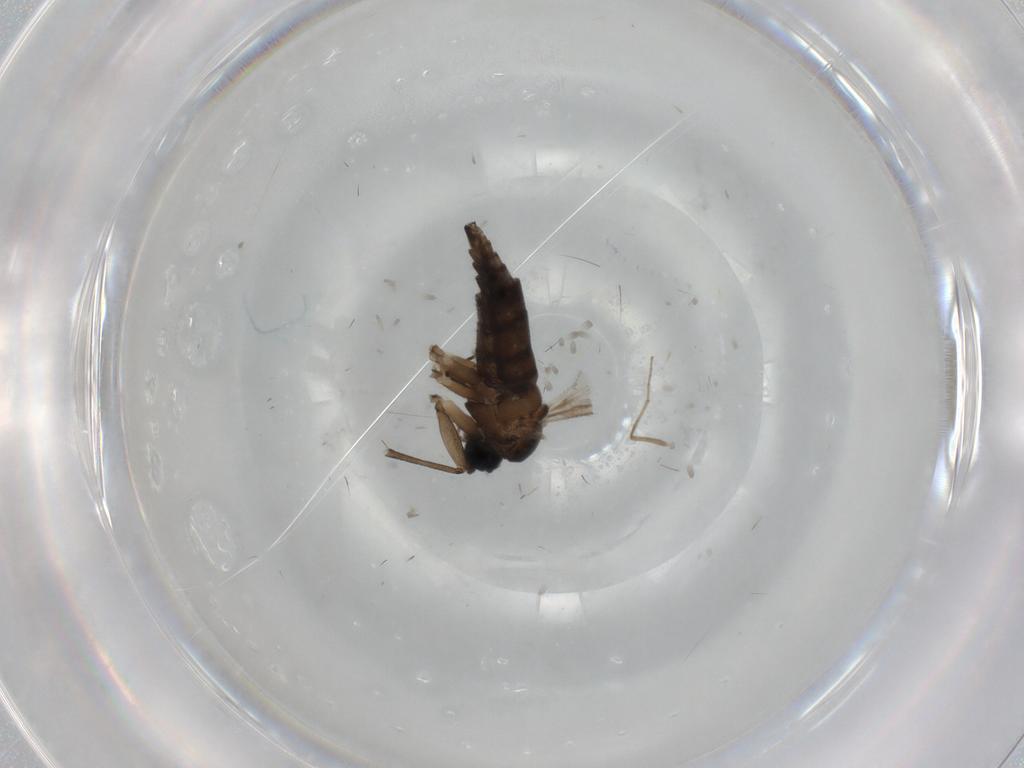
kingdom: Animalia
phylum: Arthropoda
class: Insecta
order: Diptera
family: Sciaridae
